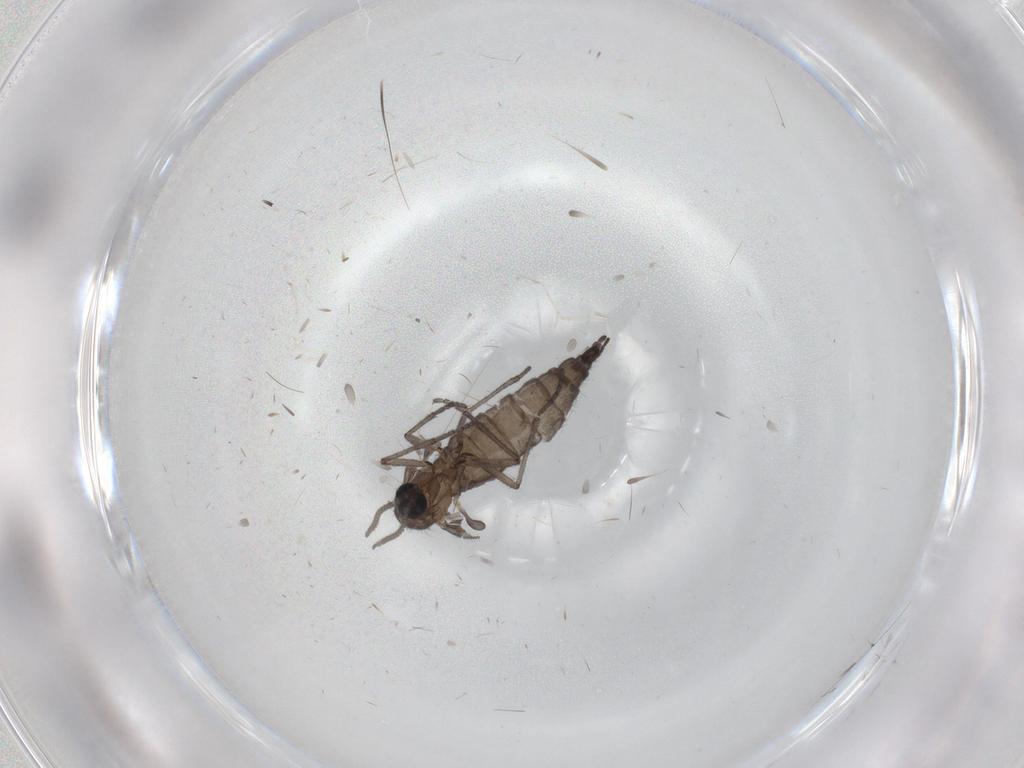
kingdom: Animalia
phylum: Arthropoda
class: Insecta
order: Diptera
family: Sciaridae
